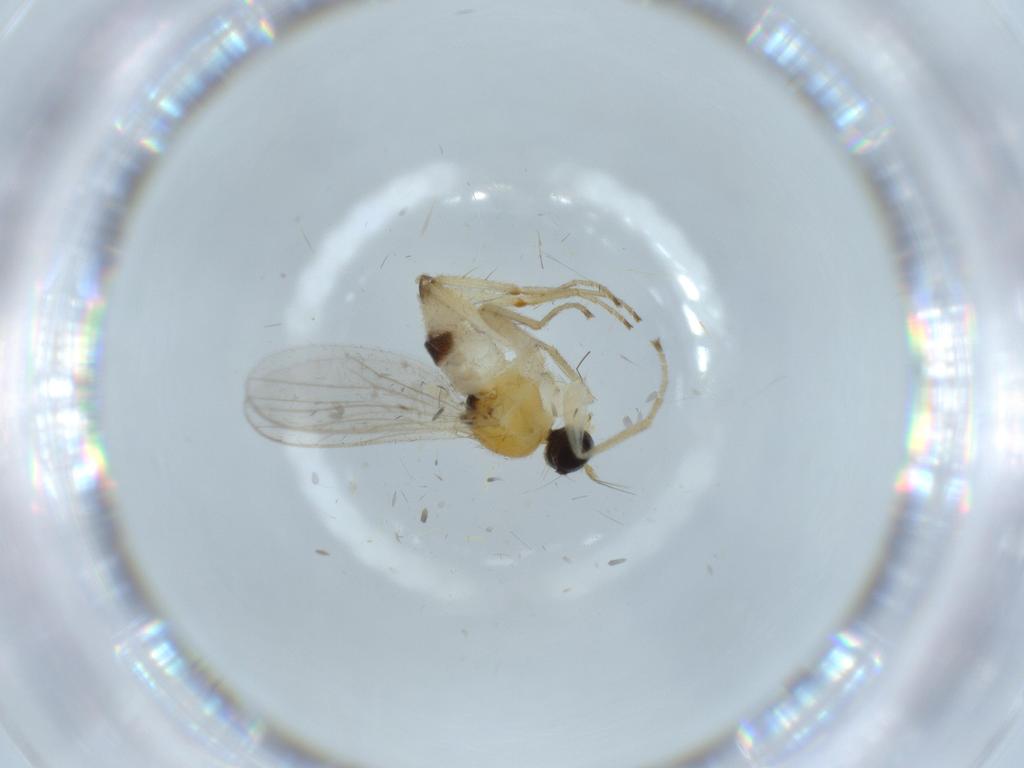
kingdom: Animalia
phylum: Arthropoda
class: Insecta
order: Diptera
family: Hybotidae
